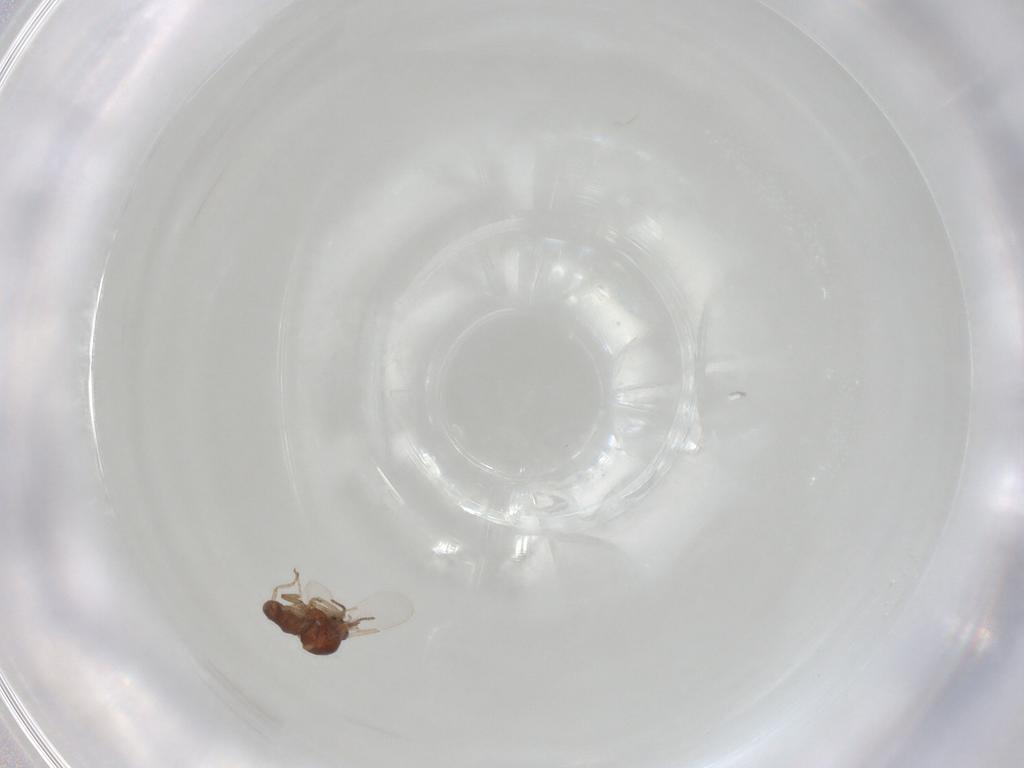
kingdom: Animalia
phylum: Arthropoda
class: Insecta
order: Diptera
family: Ceratopogonidae
